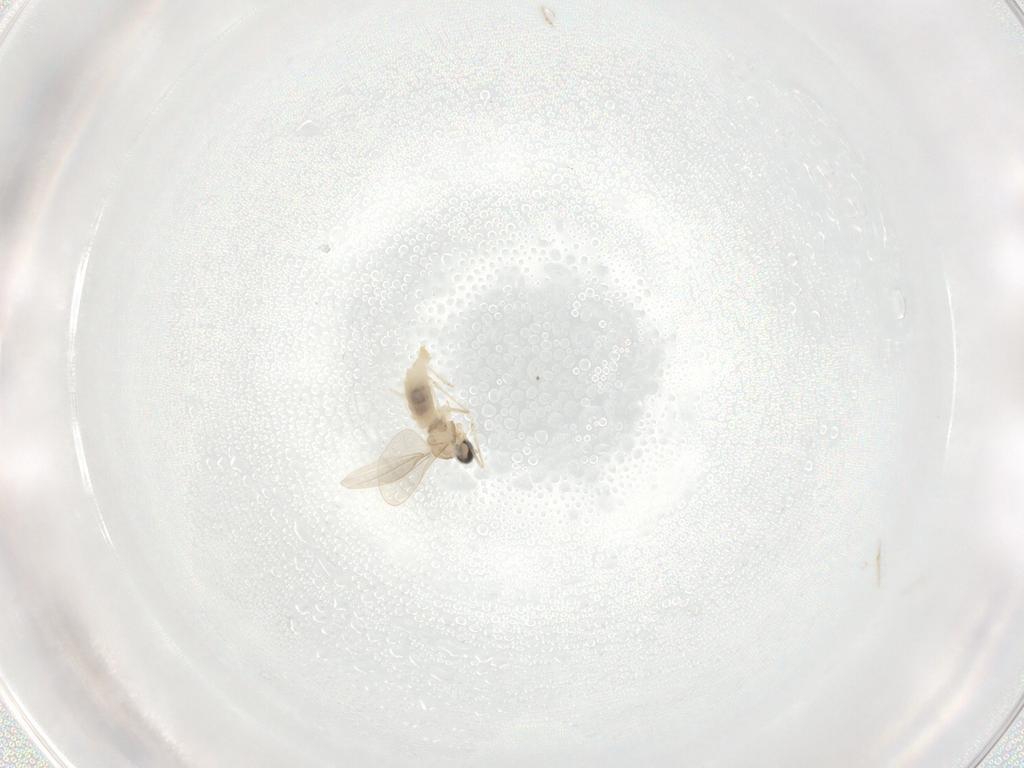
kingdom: Animalia
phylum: Arthropoda
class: Insecta
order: Diptera
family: Cecidomyiidae
